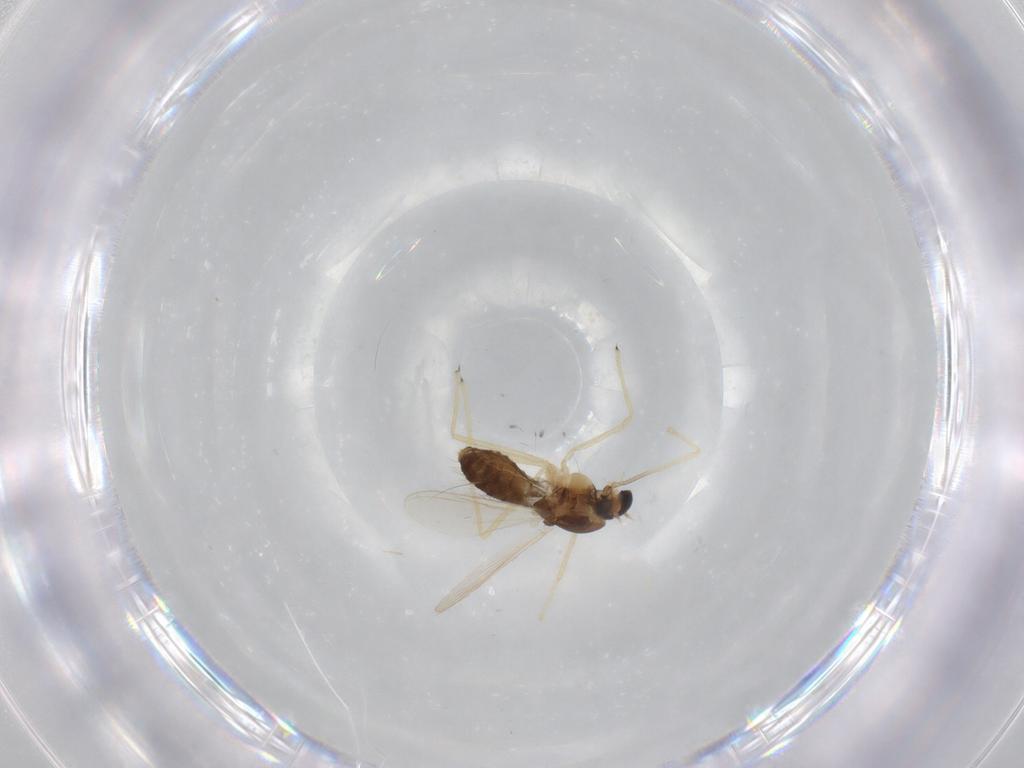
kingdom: Animalia
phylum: Arthropoda
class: Insecta
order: Diptera
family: Chironomidae
